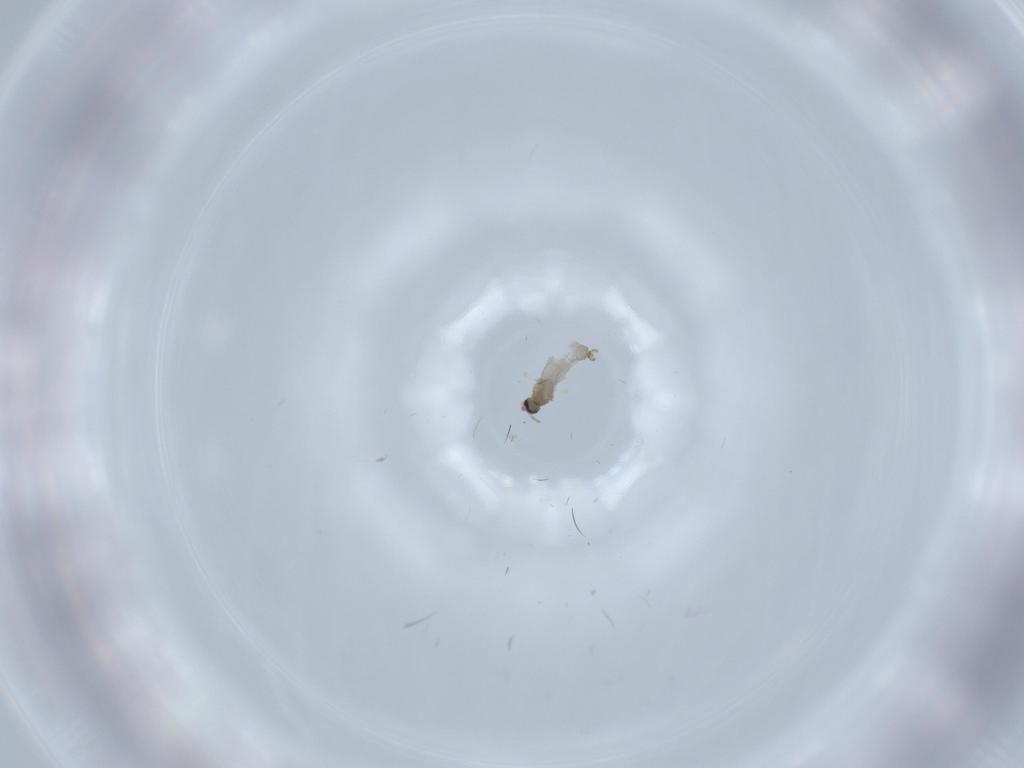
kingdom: Animalia
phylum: Arthropoda
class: Insecta
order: Diptera
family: Cecidomyiidae
